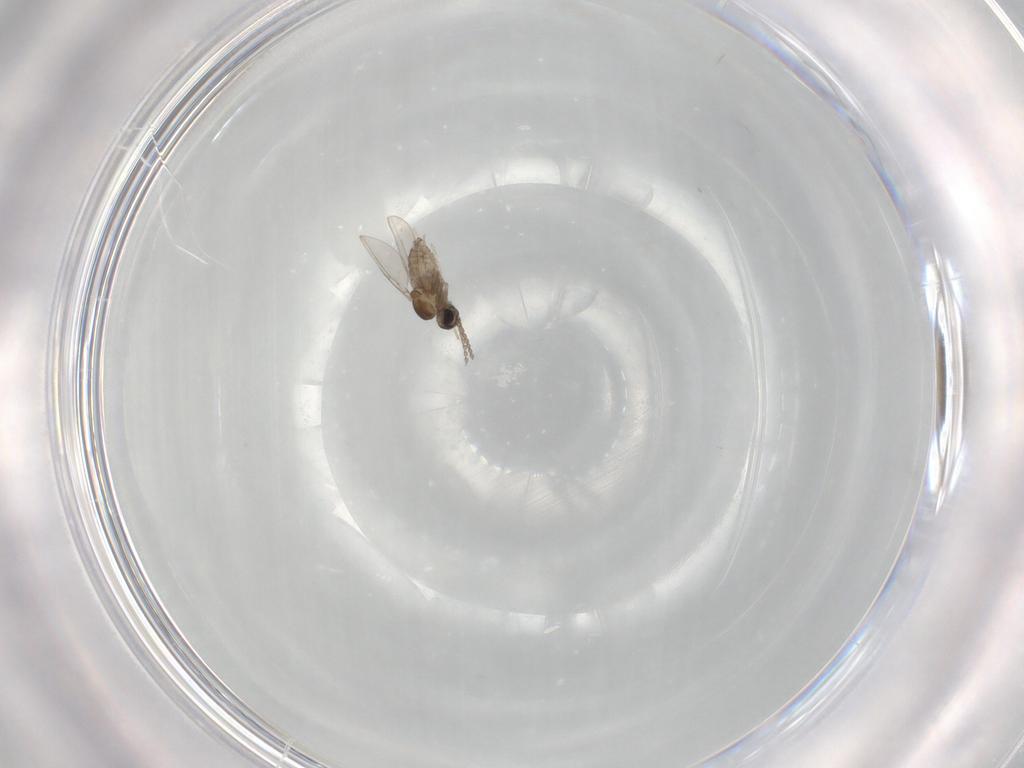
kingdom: Animalia
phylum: Arthropoda
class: Insecta
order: Diptera
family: Cecidomyiidae
